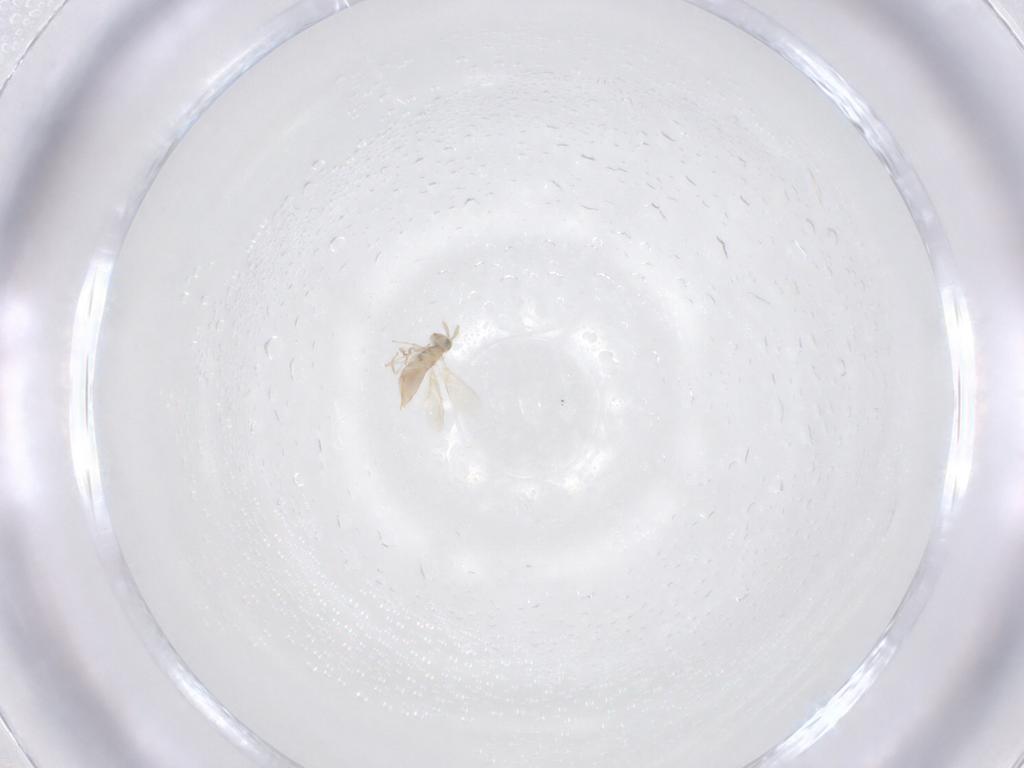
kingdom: Animalia
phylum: Arthropoda
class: Insecta
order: Hymenoptera
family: Aphelinidae
